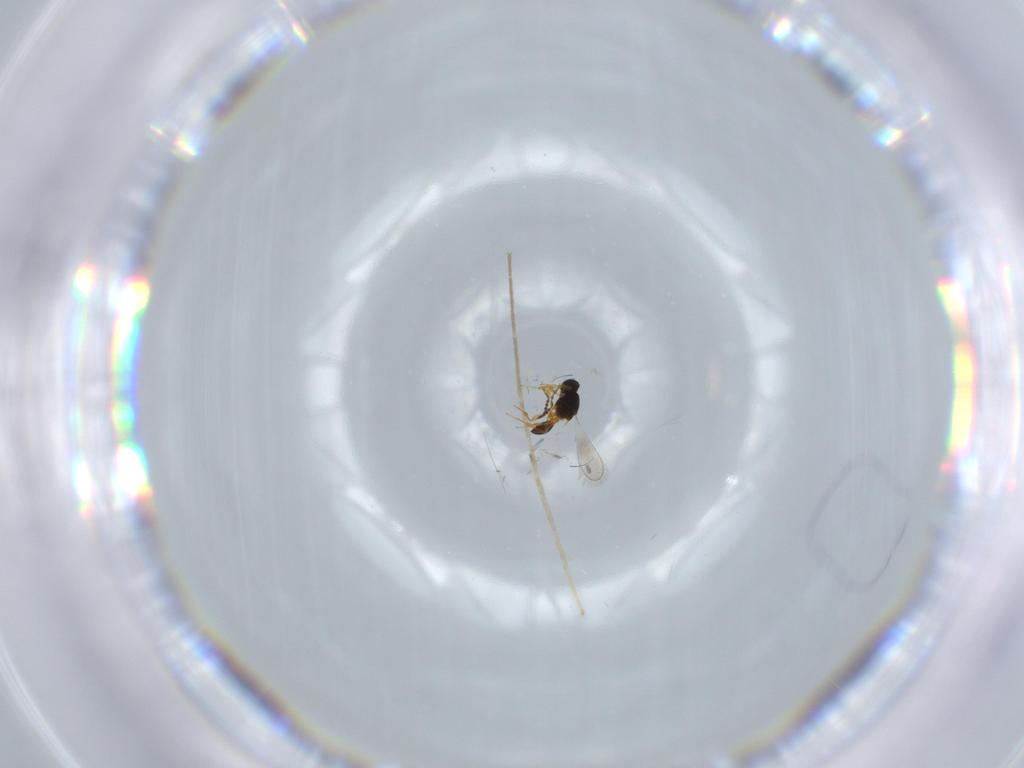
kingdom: Animalia
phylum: Arthropoda
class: Insecta
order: Hymenoptera
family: Platygastridae
